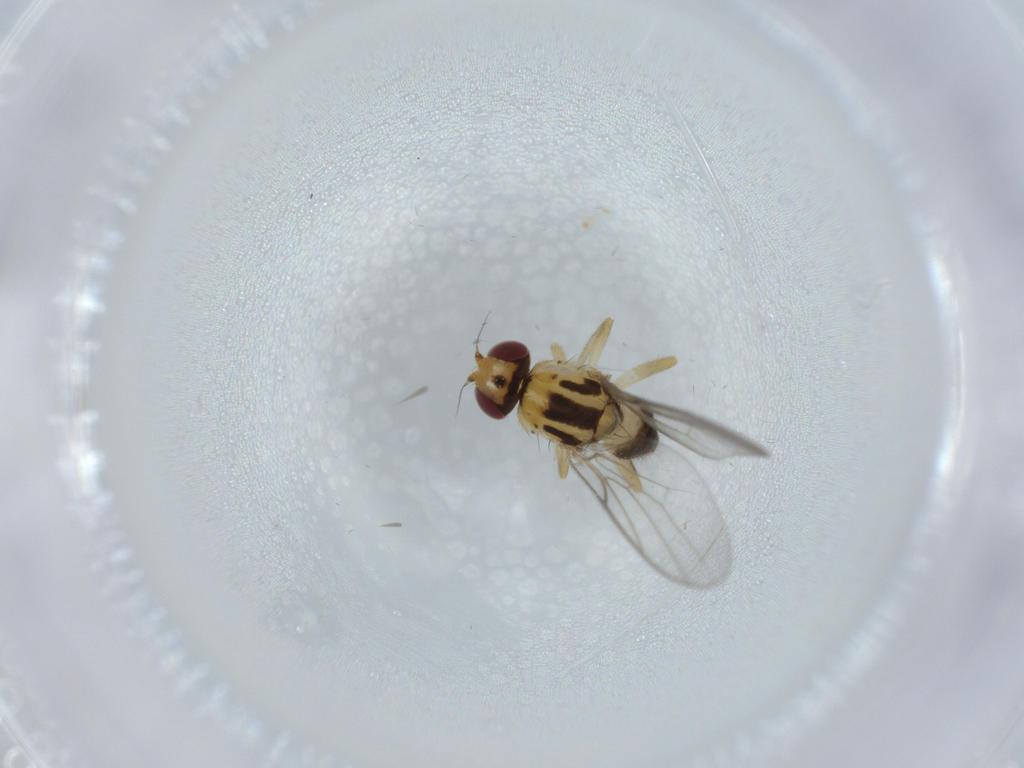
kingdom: Animalia
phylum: Arthropoda
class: Insecta
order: Diptera
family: Chloropidae
